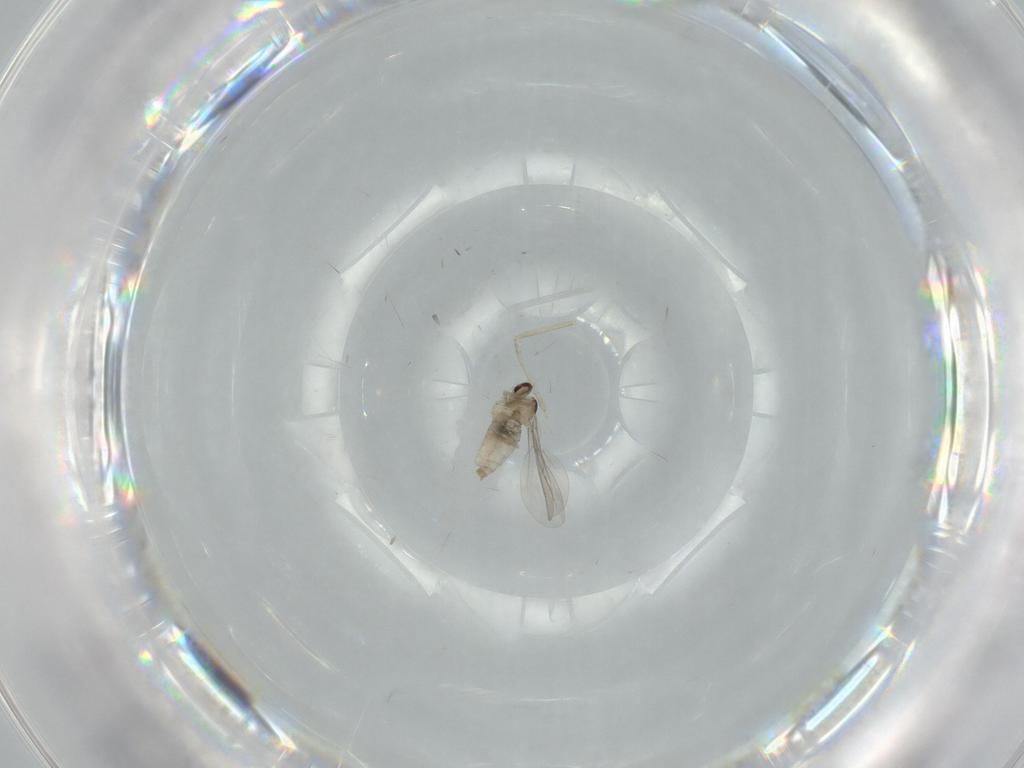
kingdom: Animalia
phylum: Arthropoda
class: Insecta
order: Diptera
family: Cecidomyiidae
